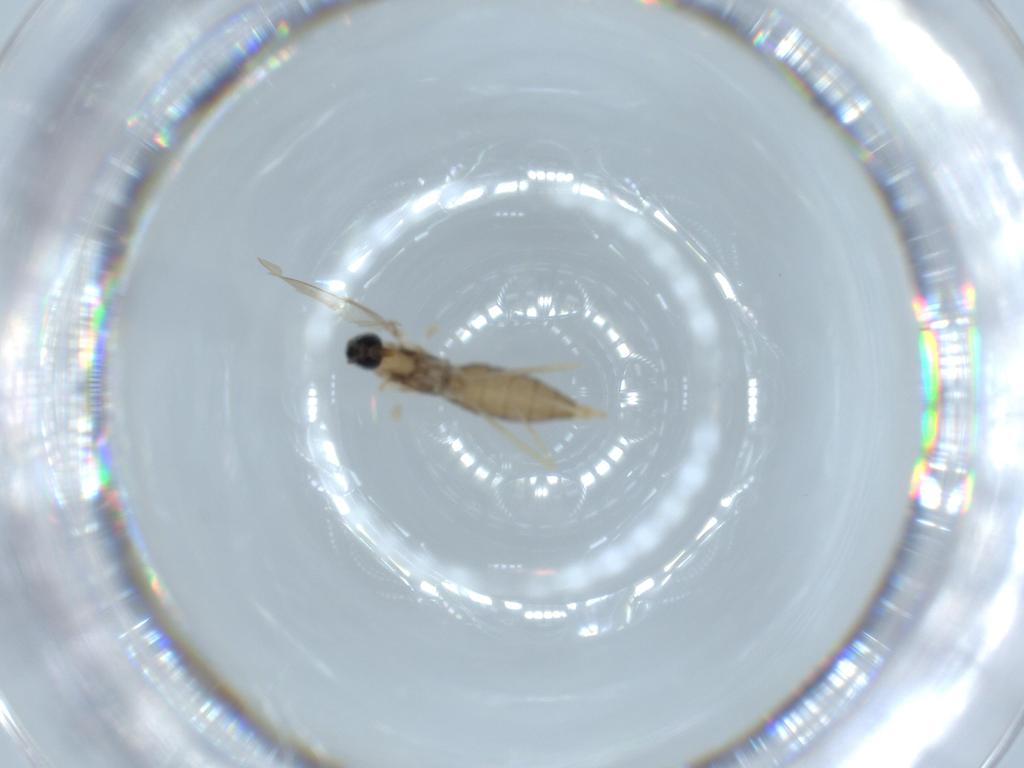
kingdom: Animalia
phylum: Arthropoda
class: Insecta
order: Diptera
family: Cecidomyiidae
